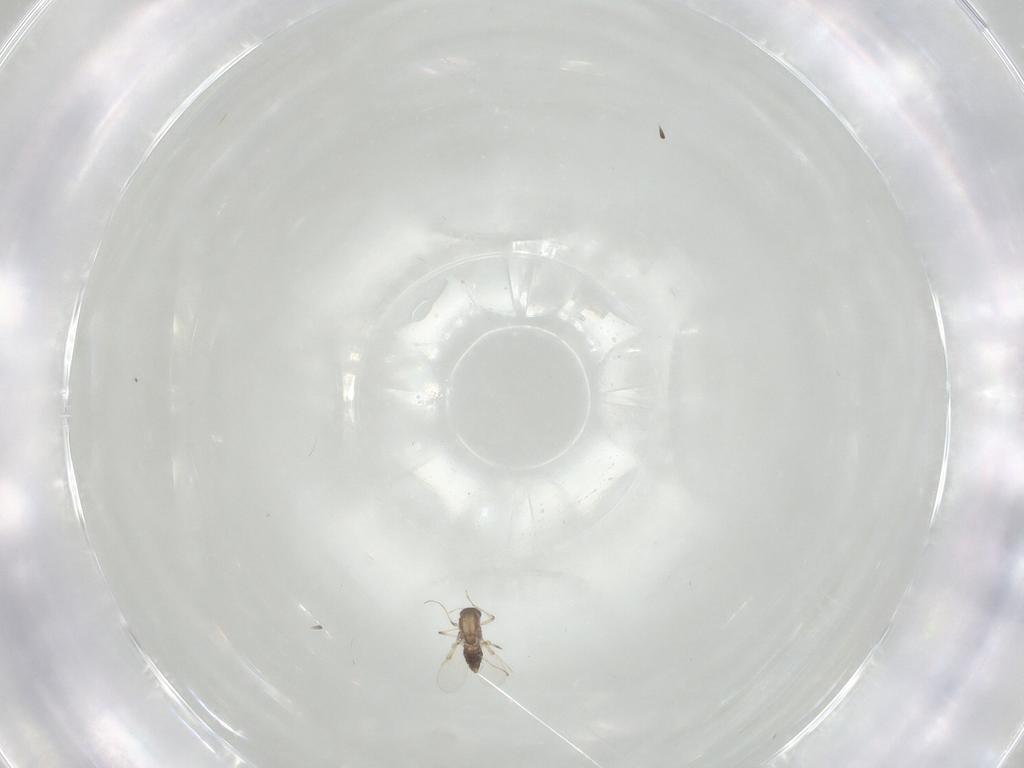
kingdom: Animalia
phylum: Arthropoda
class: Insecta
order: Diptera
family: Chironomidae
